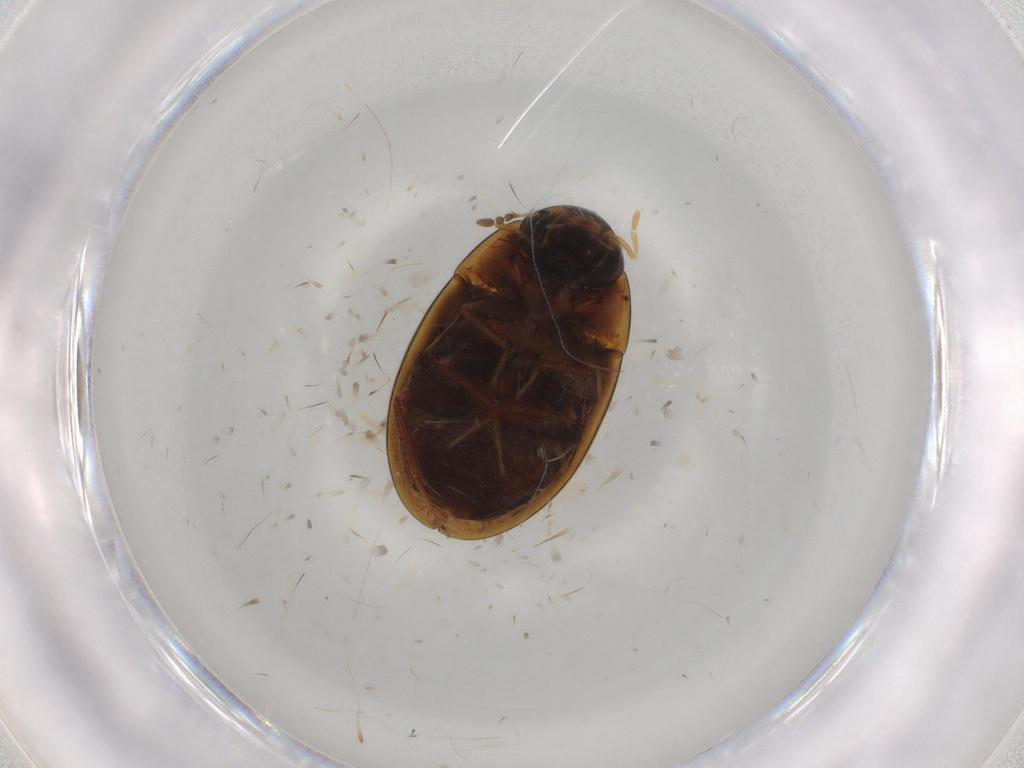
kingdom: Animalia
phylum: Arthropoda
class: Insecta
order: Coleoptera
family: Hydrophilidae
